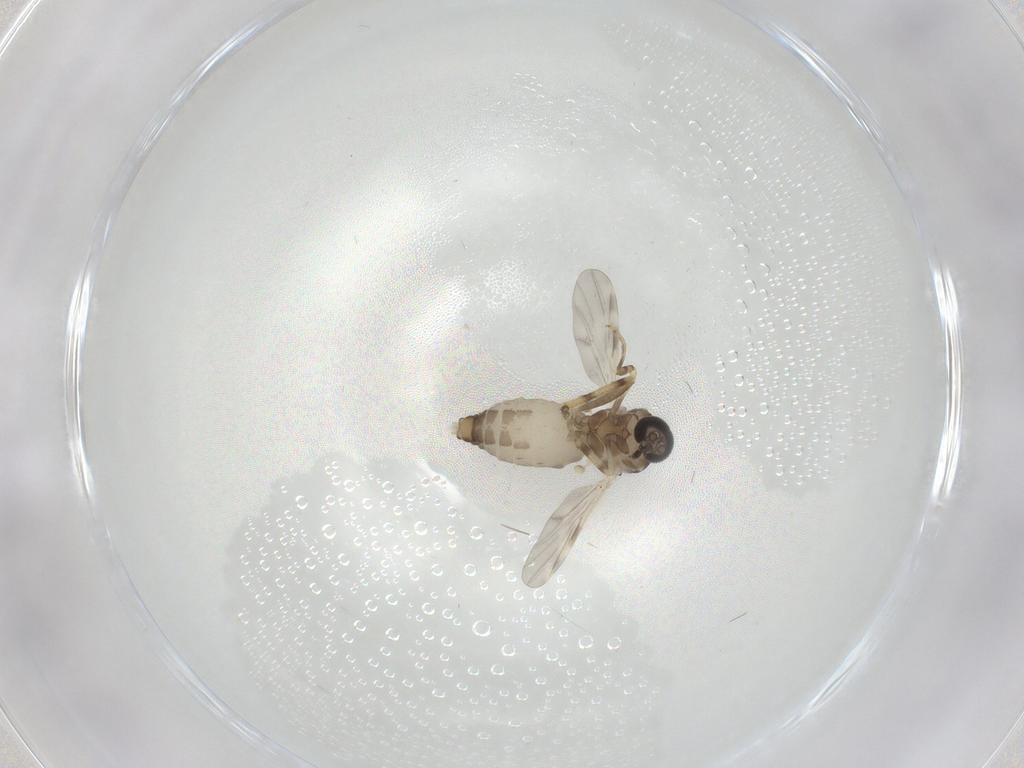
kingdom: Animalia
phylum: Arthropoda
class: Insecta
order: Diptera
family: Ceratopogonidae
